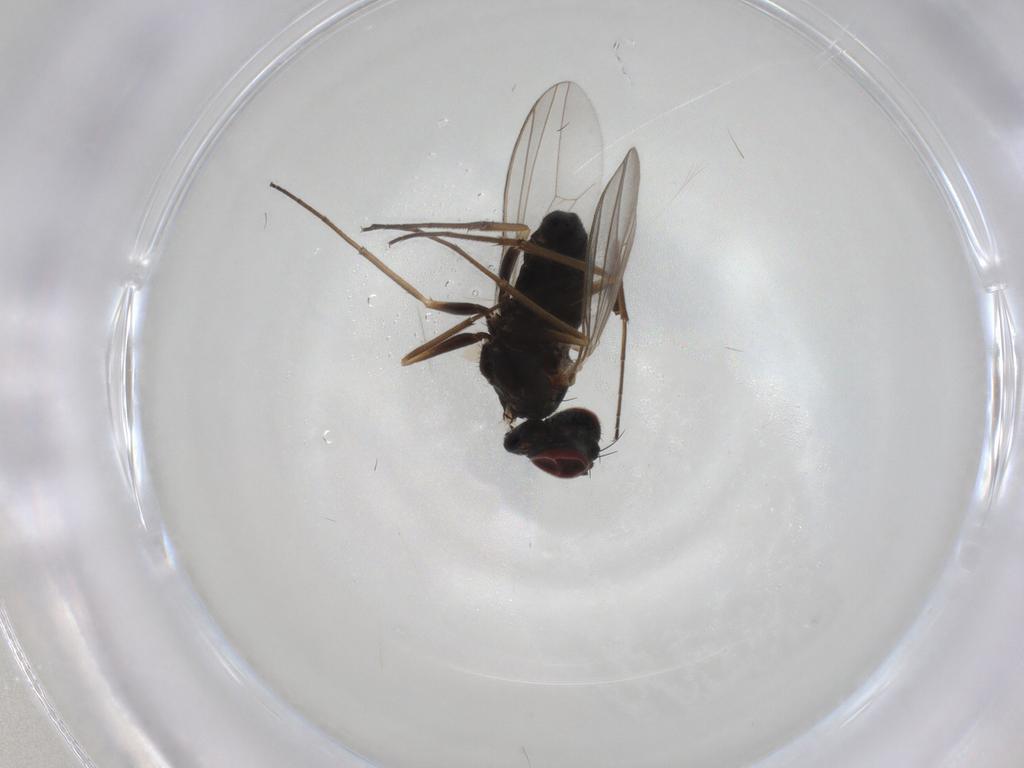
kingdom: Animalia
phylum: Arthropoda
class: Insecta
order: Diptera
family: Dolichopodidae
